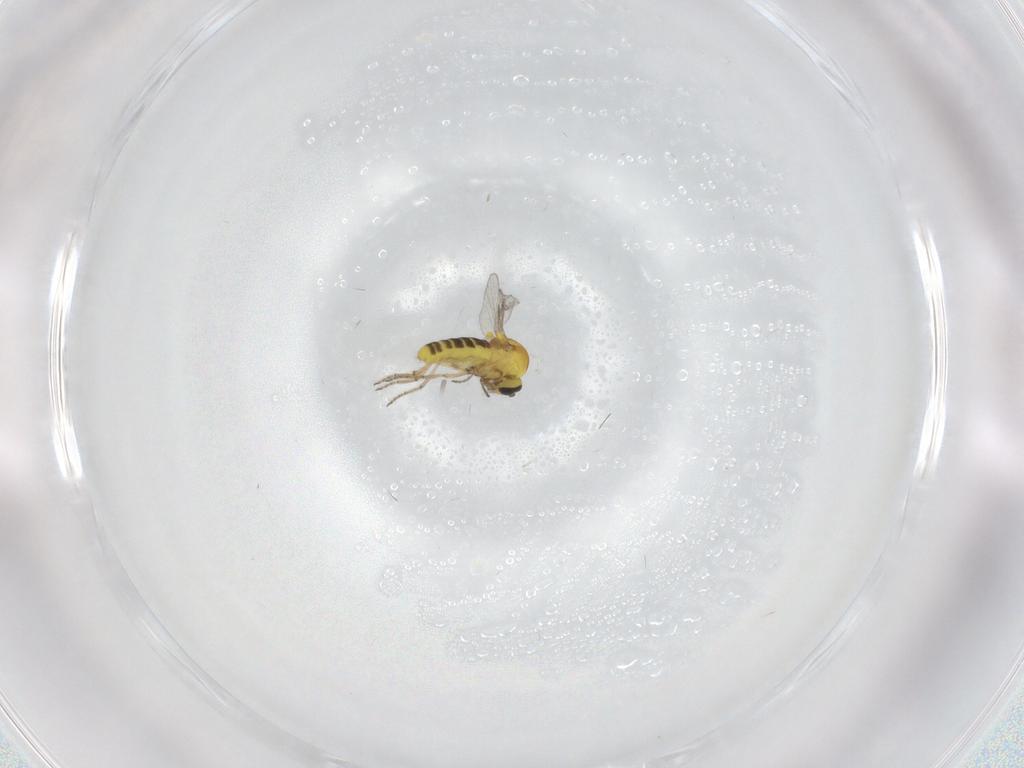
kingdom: Animalia
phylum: Arthropoda
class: Insecta
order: Diptera
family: Ceratopogonidae
